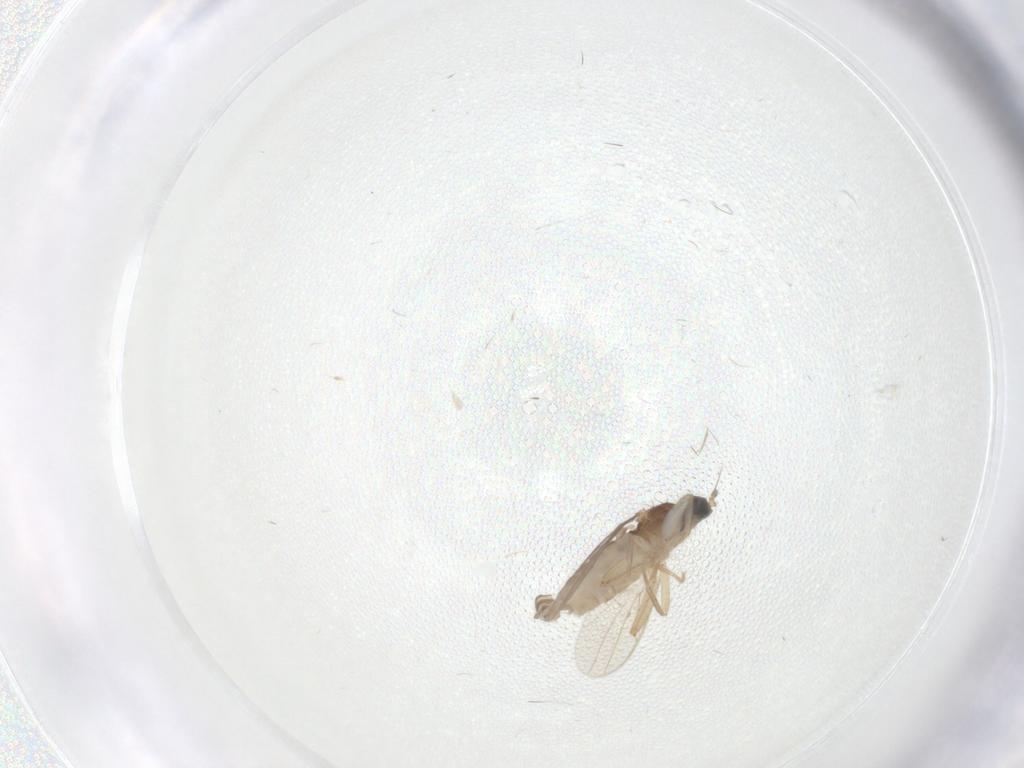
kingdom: Animalia
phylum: Arthropoda
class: Insecta
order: Diptera
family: Hybotidae
